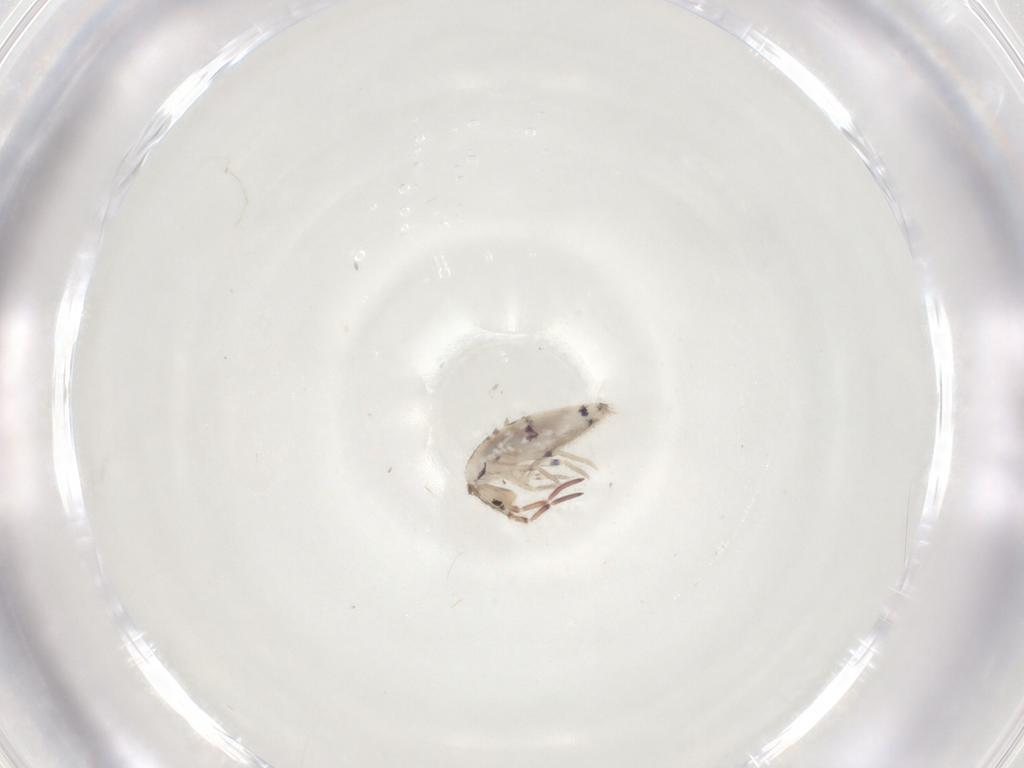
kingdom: Animalia
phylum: Arthropoda
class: Collembola
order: Entomobryomorpha
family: Entomobryidae
